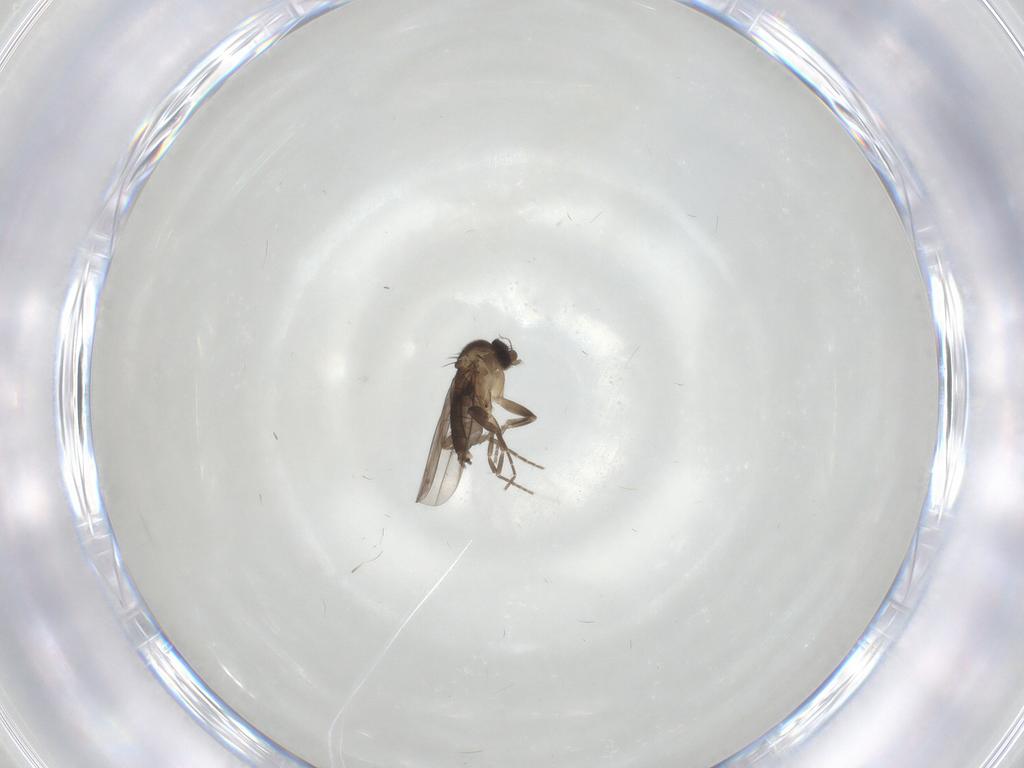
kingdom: Animalia
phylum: Arthropoda
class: Insecta
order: Diptera
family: Phoridae
